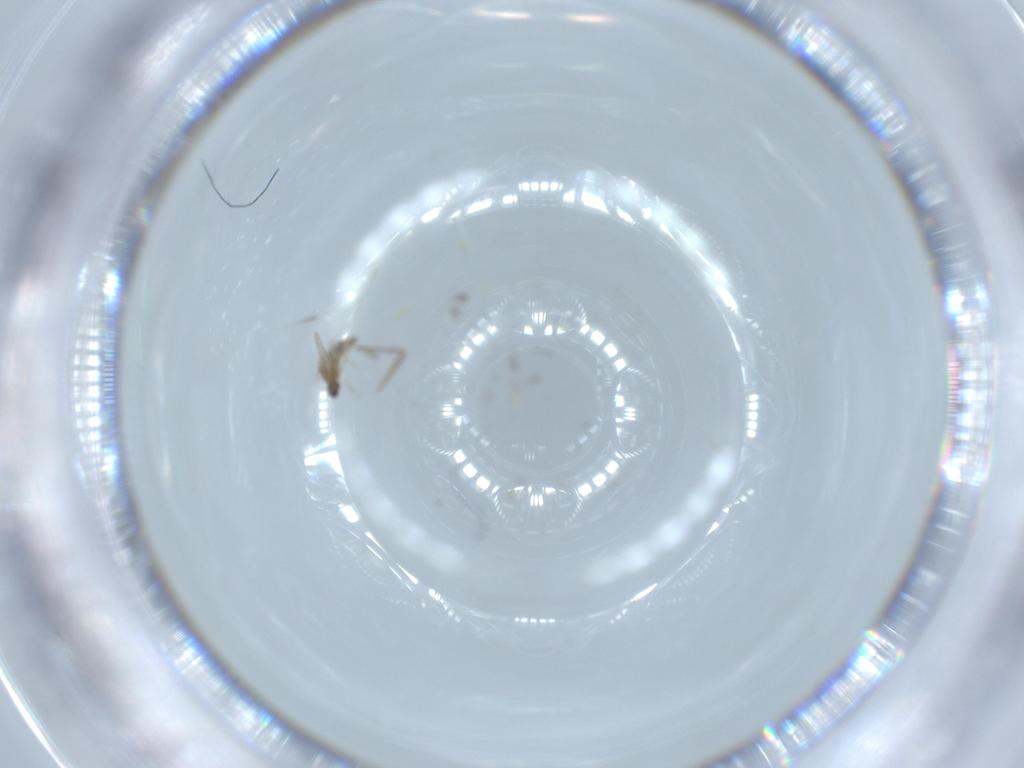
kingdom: Animalia
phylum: Arthropoda
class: Insecta
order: Diptera
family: Cecidomyiidae
